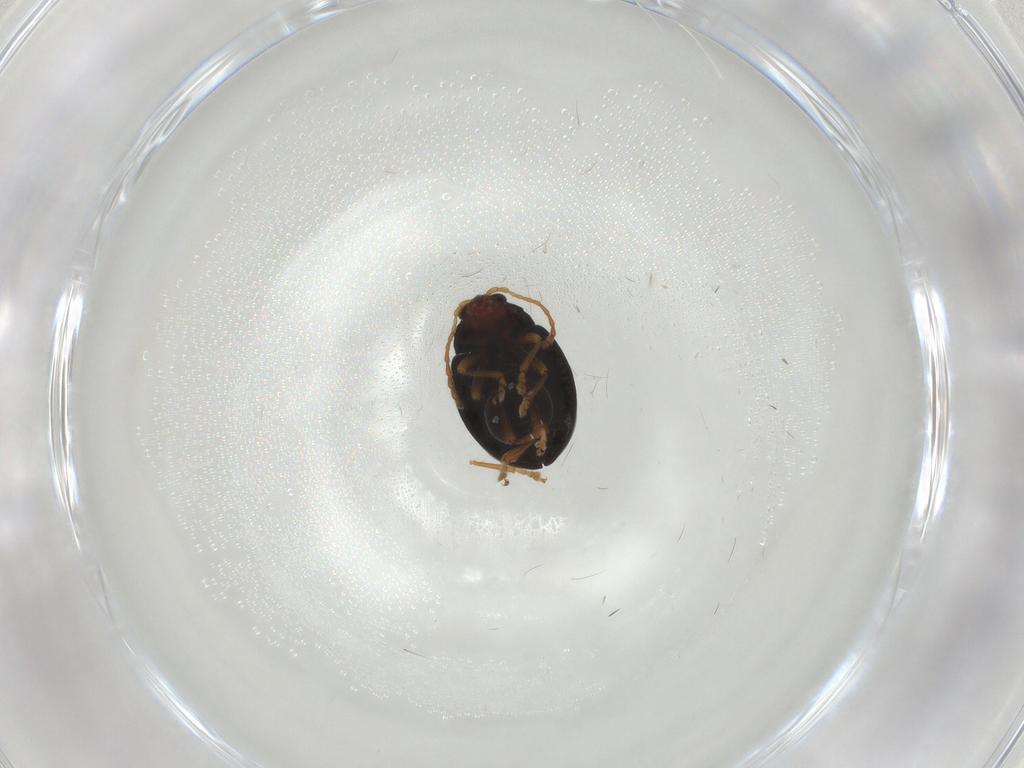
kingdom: Animalia
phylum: Arthropoda
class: Insecta
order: Coleoptera
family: Chrysomelidae
